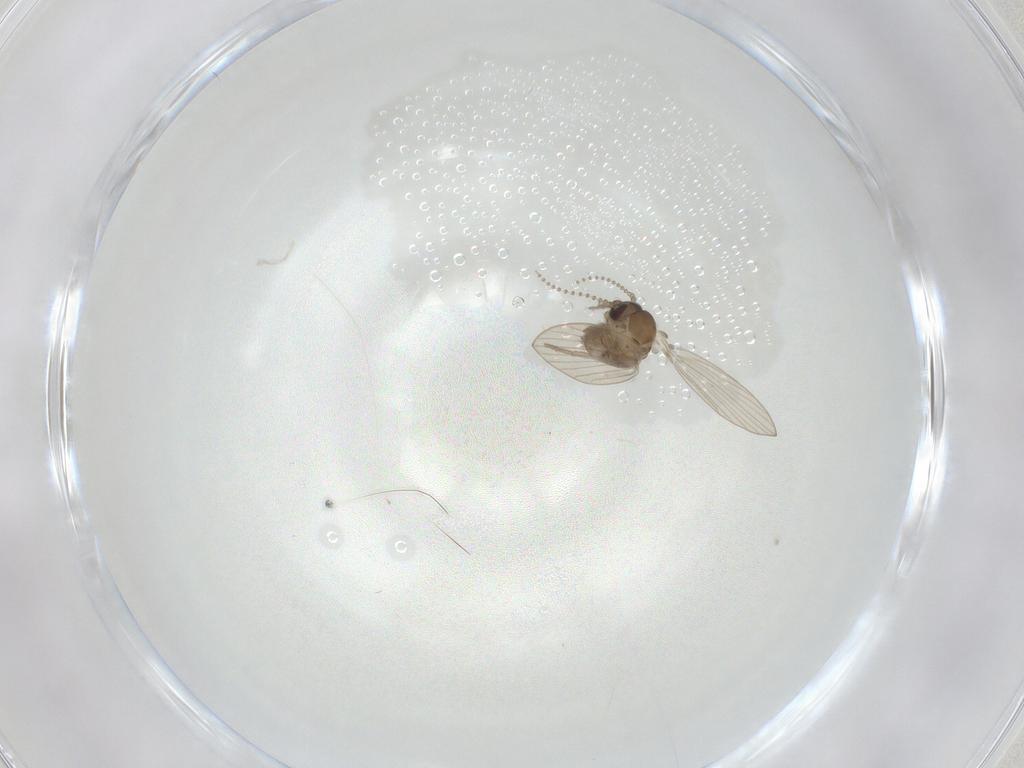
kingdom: Animalia
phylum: Arthropoda
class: Insecta
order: Diptera
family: Psychodidae
